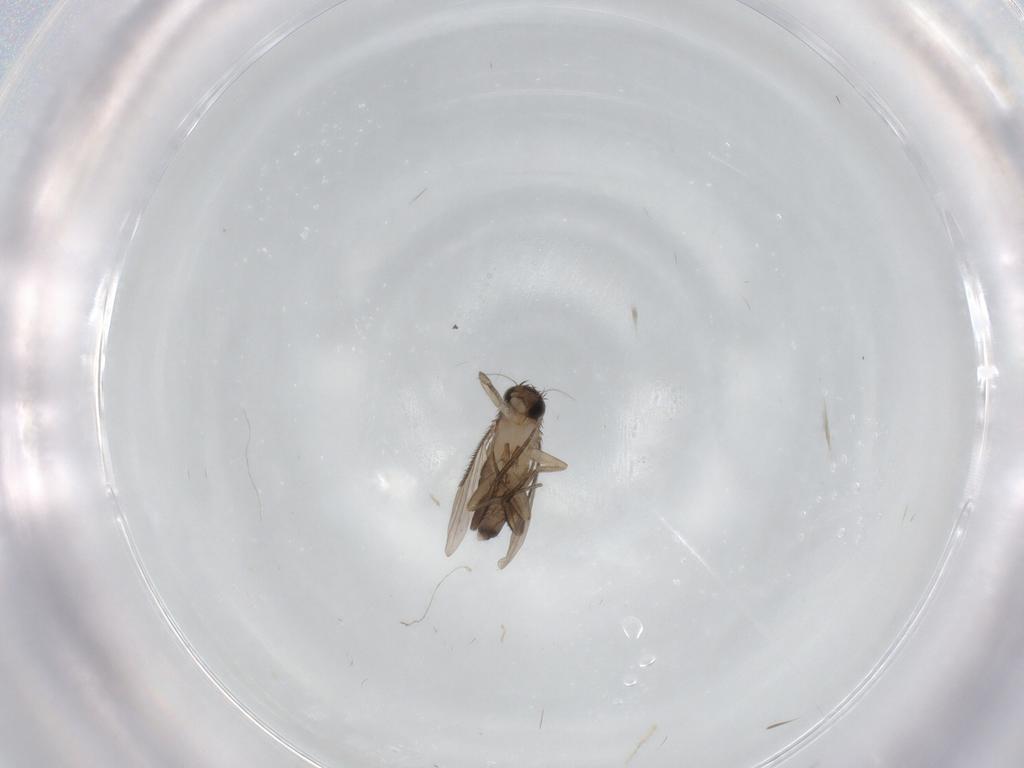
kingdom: Animalia
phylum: Arthropoda
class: Insecta
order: Diptera
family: Phoridae
